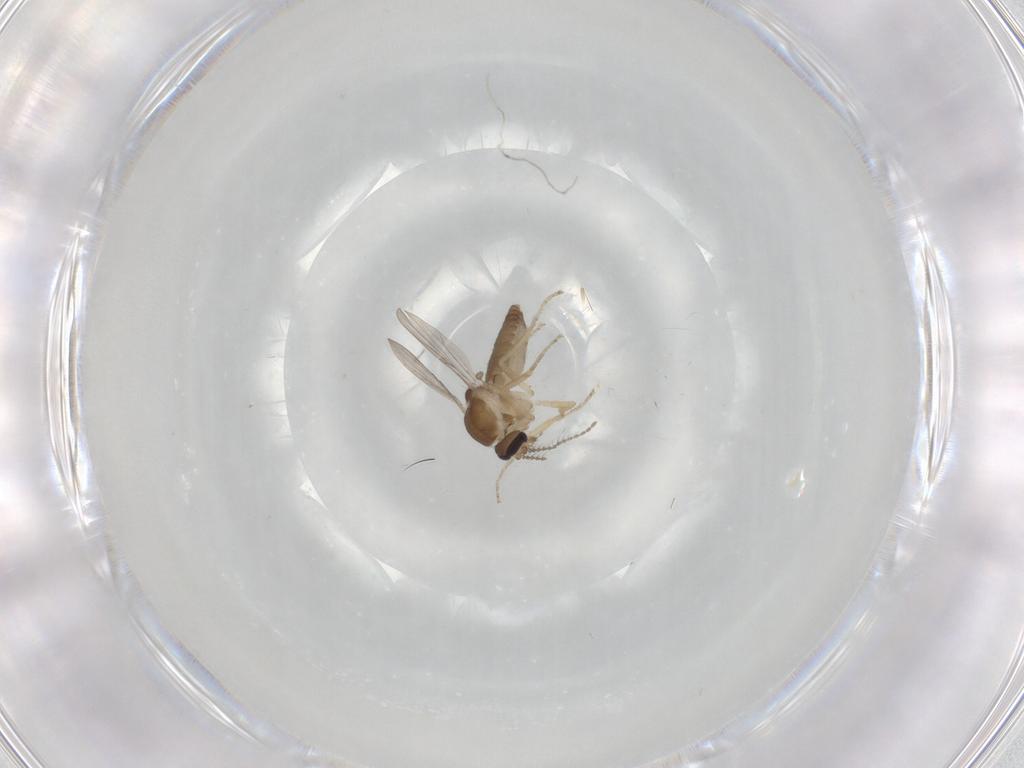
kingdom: Animalia
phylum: Arthropoda
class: Insecta
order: Diptera
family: Ceratopogonidae
